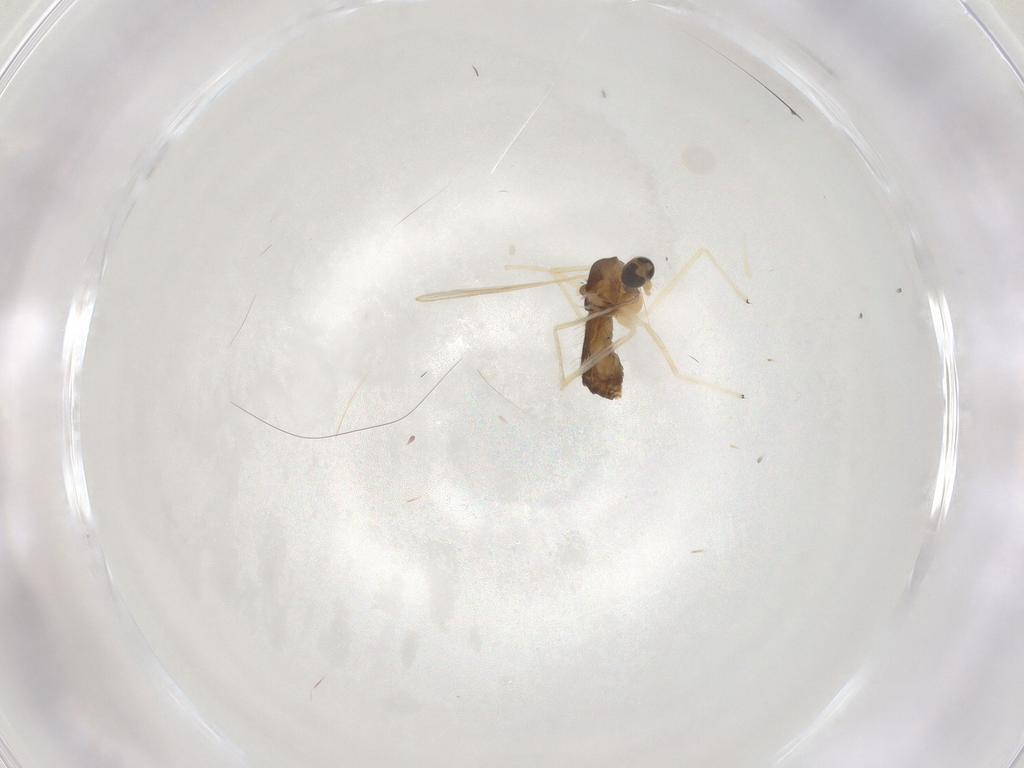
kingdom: Animalia
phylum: Arthropoda
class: Insecta
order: Diptera
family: Chironomidae
